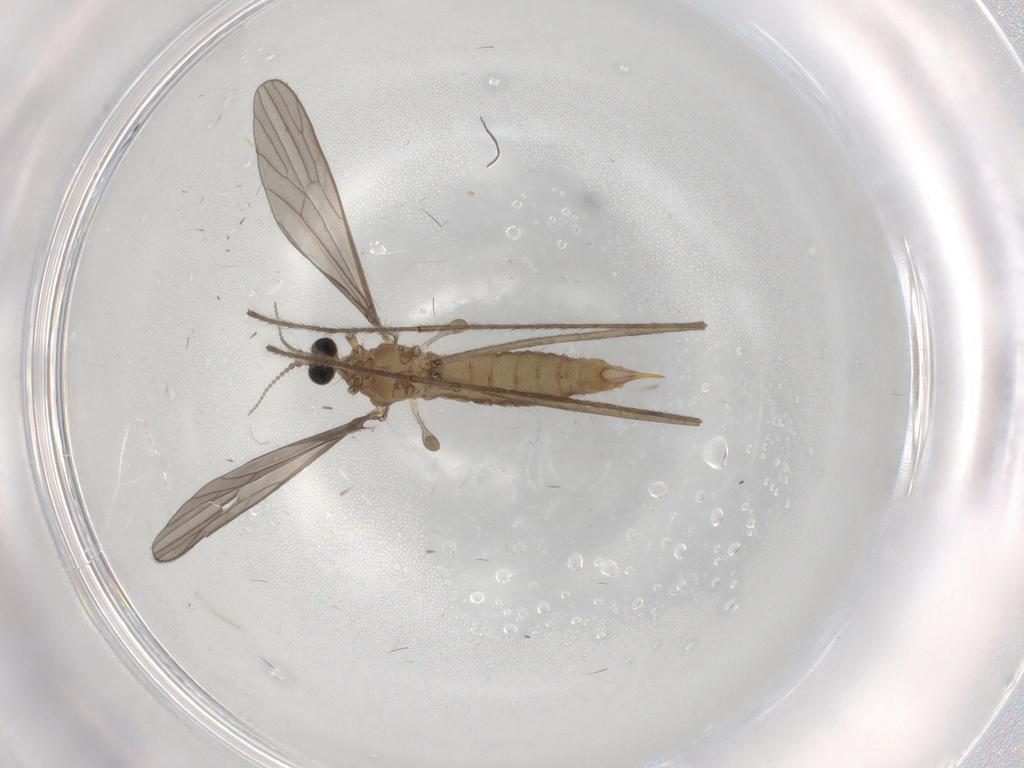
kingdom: Animalia
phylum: Arthropoda
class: Insecta
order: Diptera
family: Limoniidae
